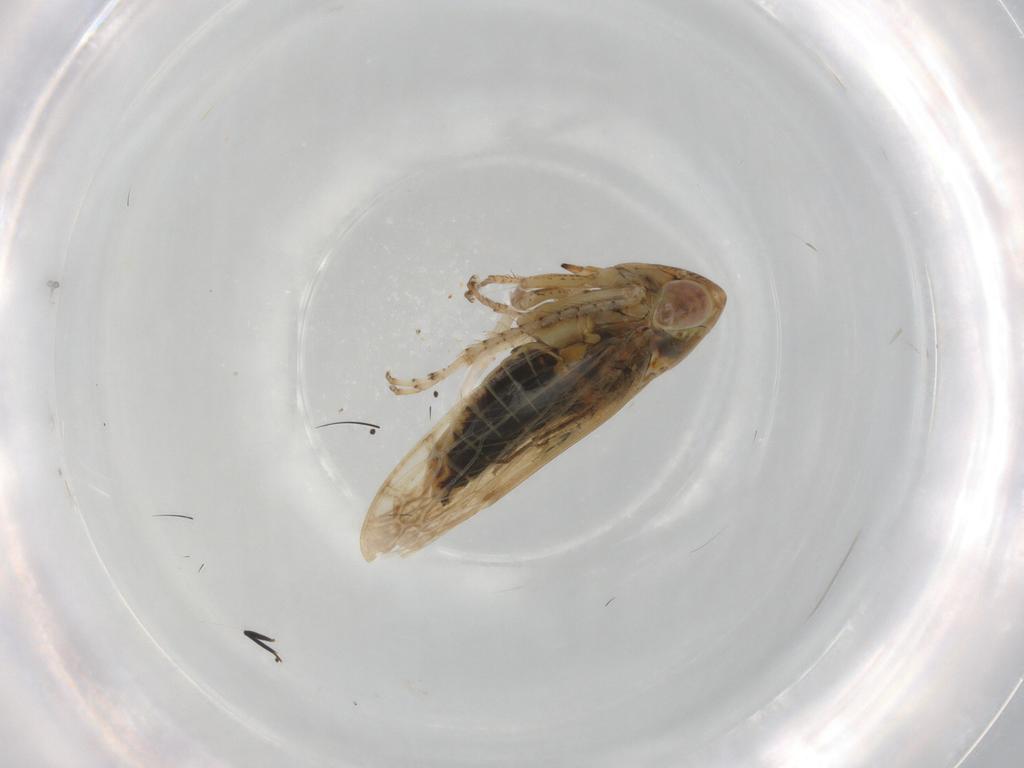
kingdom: Animalia
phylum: Arthropoda
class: Insecta
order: Hemiptera
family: Cicadellidae
